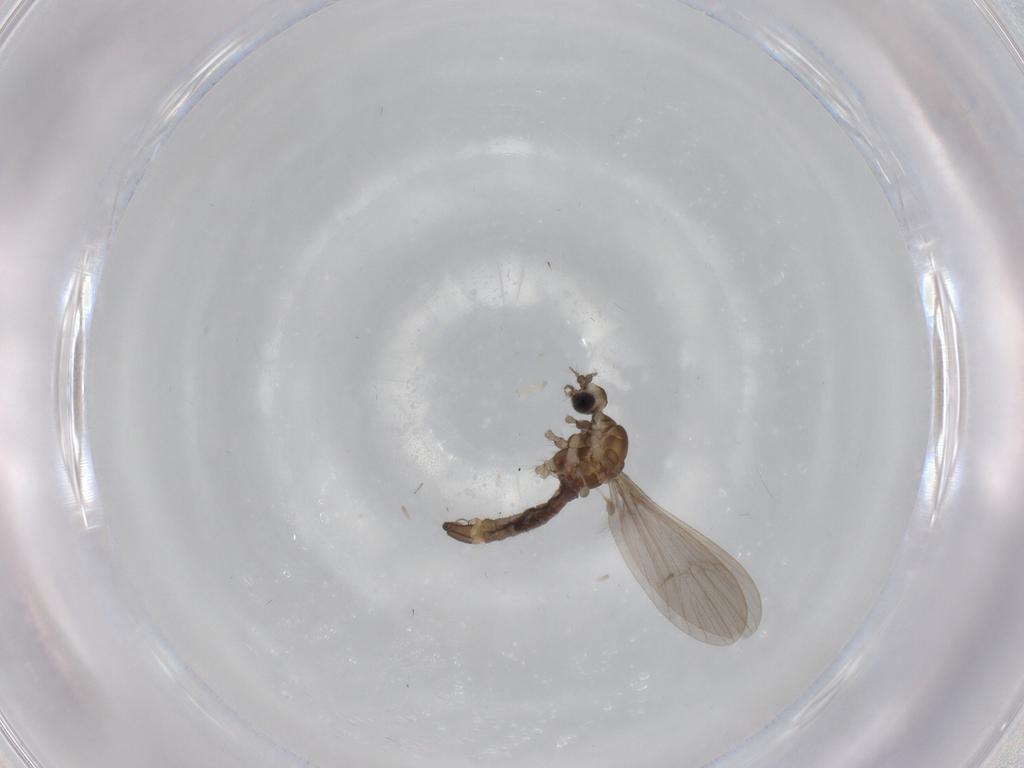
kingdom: Animalia
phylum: Arthropoda
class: Insecta
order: Diptera
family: Limoniidae
